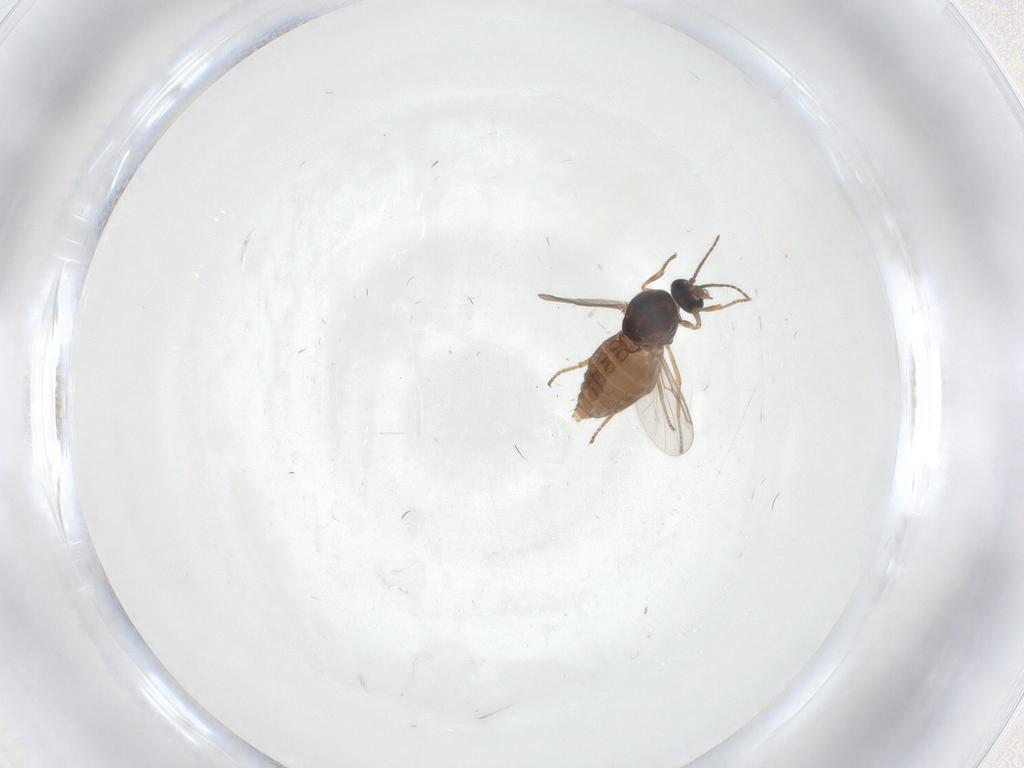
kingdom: Animalia
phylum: Arthropoda
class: Insecta
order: Diptera
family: Ceratopogonidae
